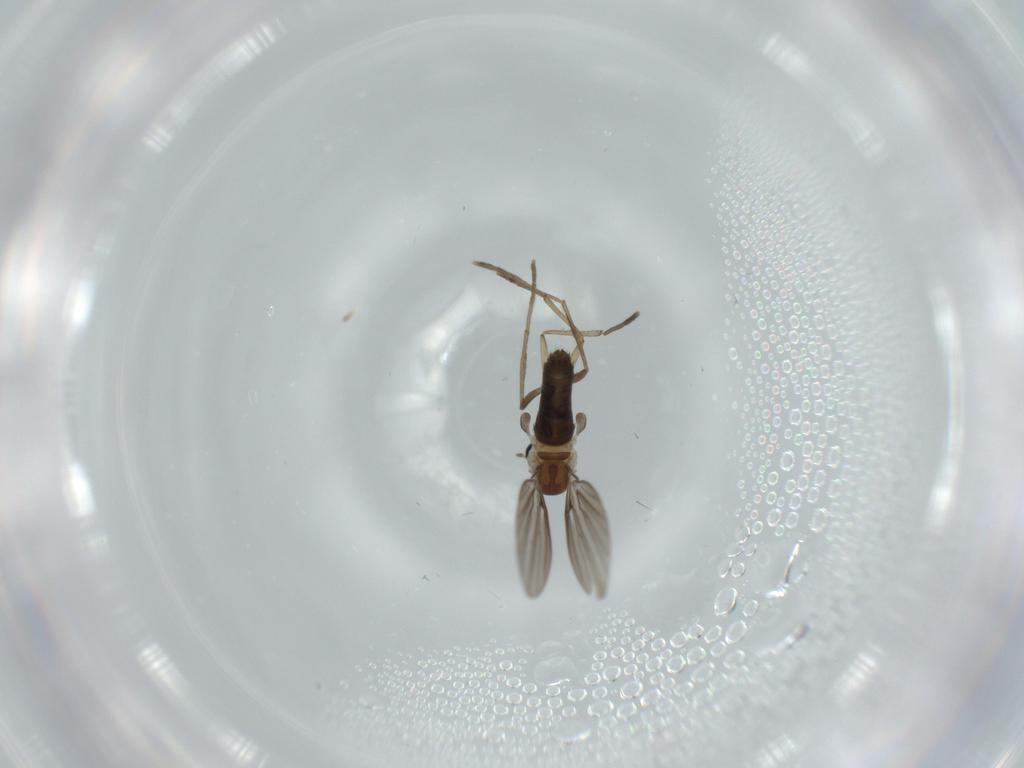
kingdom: Animalia
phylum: Arthropoda
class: Insecta
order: Diptera
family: Psychodidae
